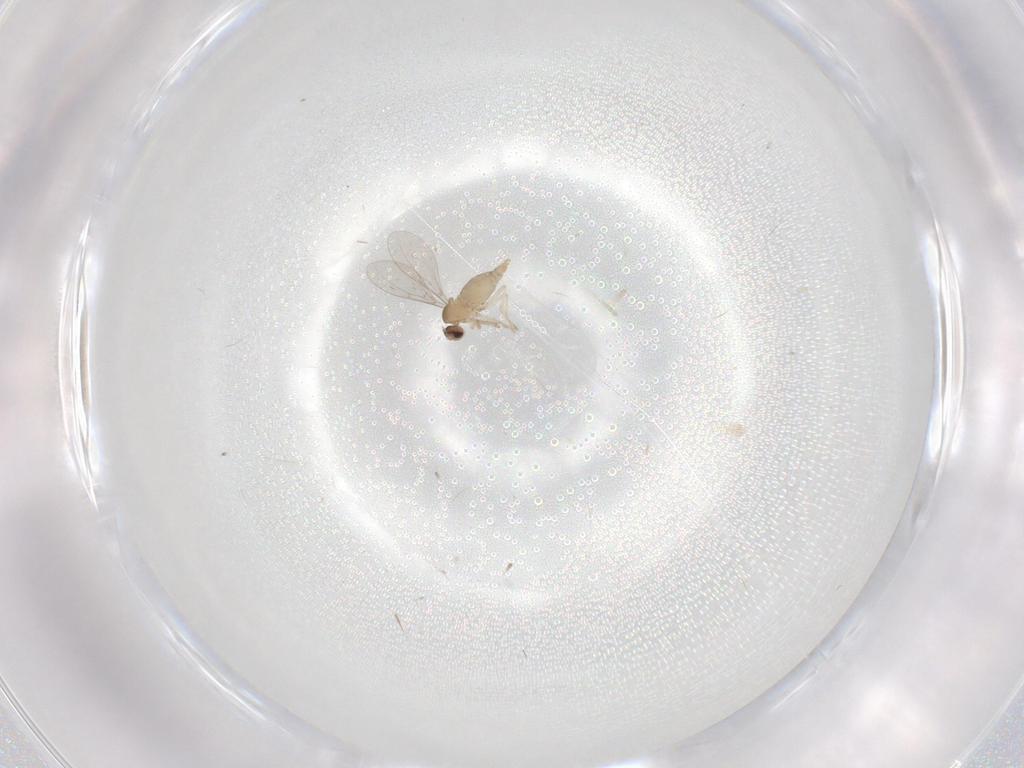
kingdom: Animalia
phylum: Arthropoda
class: Insecta
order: Diptera
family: Cecidomyiidae
